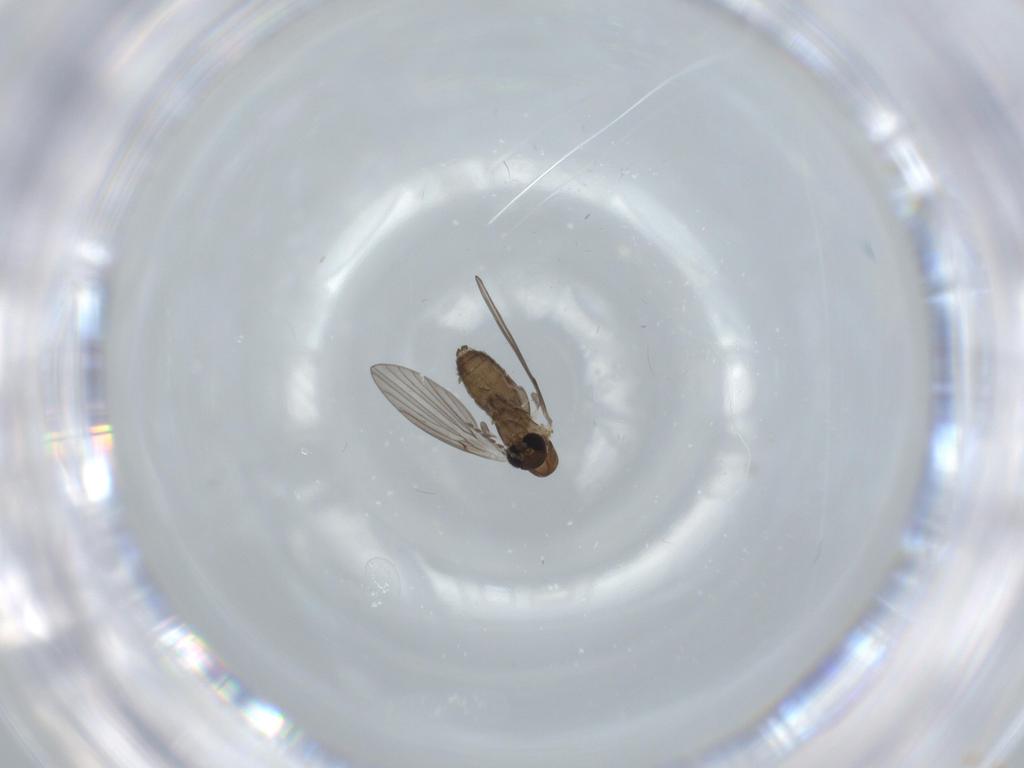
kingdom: Animalia
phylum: Arthropoda
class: Insecta
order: Diptera
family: Psychodidae
